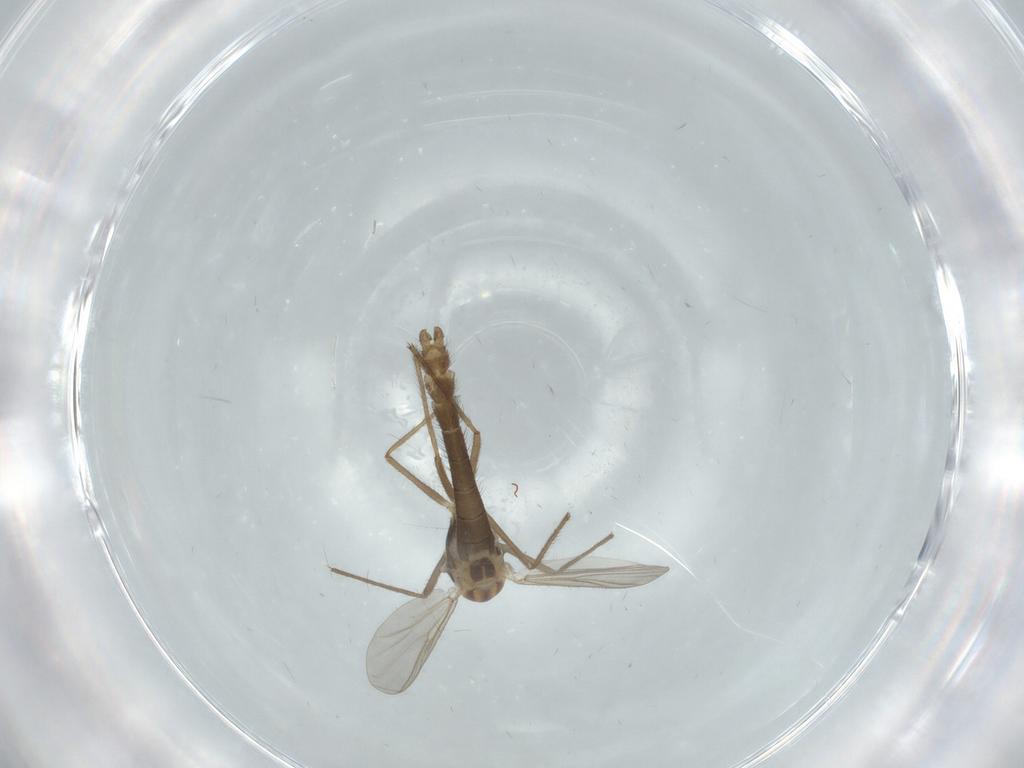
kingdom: Animalia
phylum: Arthropoda
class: Insecta
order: Diptera
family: Chironomidae
